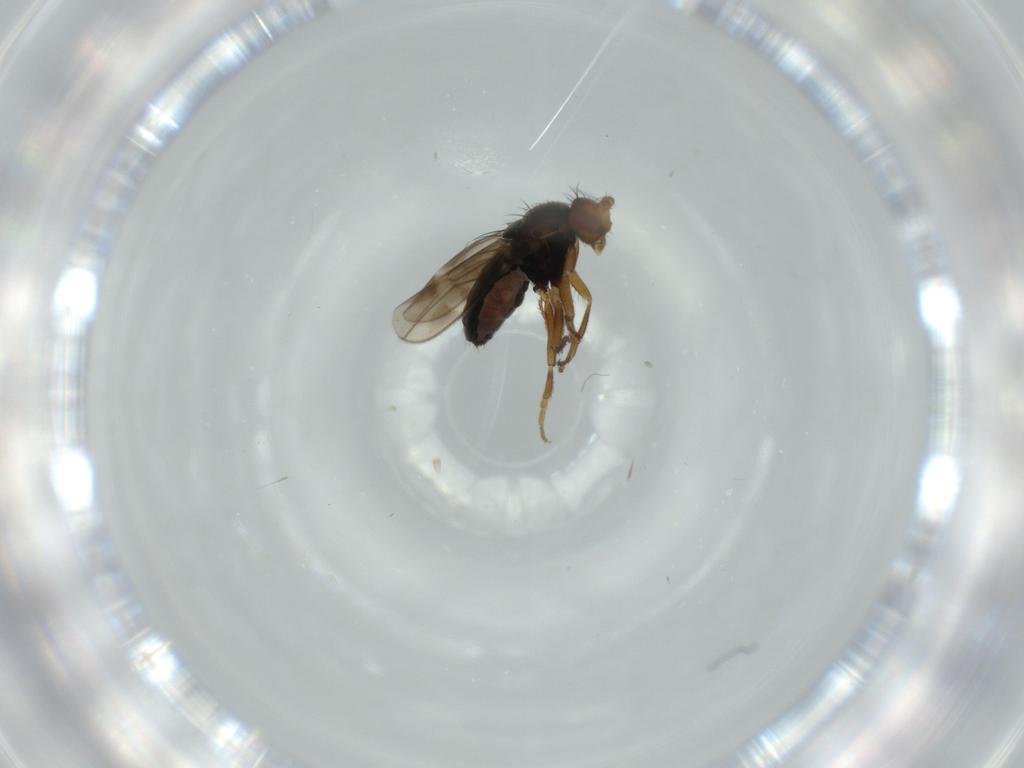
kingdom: Animalia
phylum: Arthropoda
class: Insecta
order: Diptera
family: Sphaeroceridae
